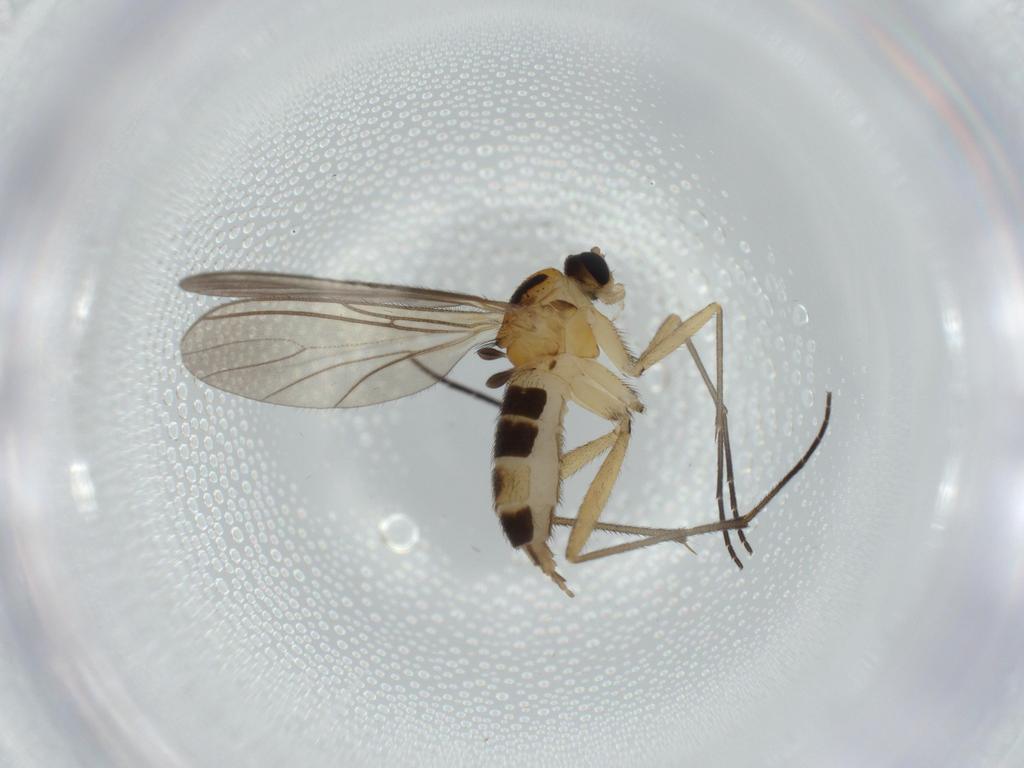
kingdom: Animalia
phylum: Arthropoda
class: Insecta
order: Diptera
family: Sciaridae
